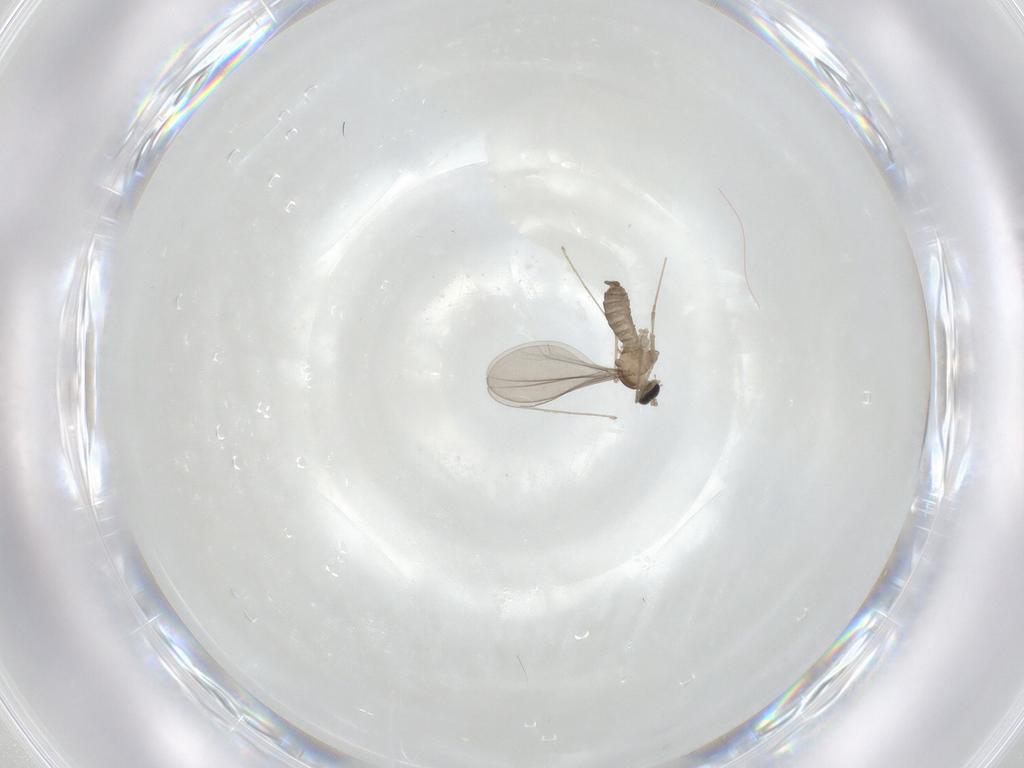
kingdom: Animalia
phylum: Arthropoda
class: Insecta
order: Diptera
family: Cecidomyiidae
